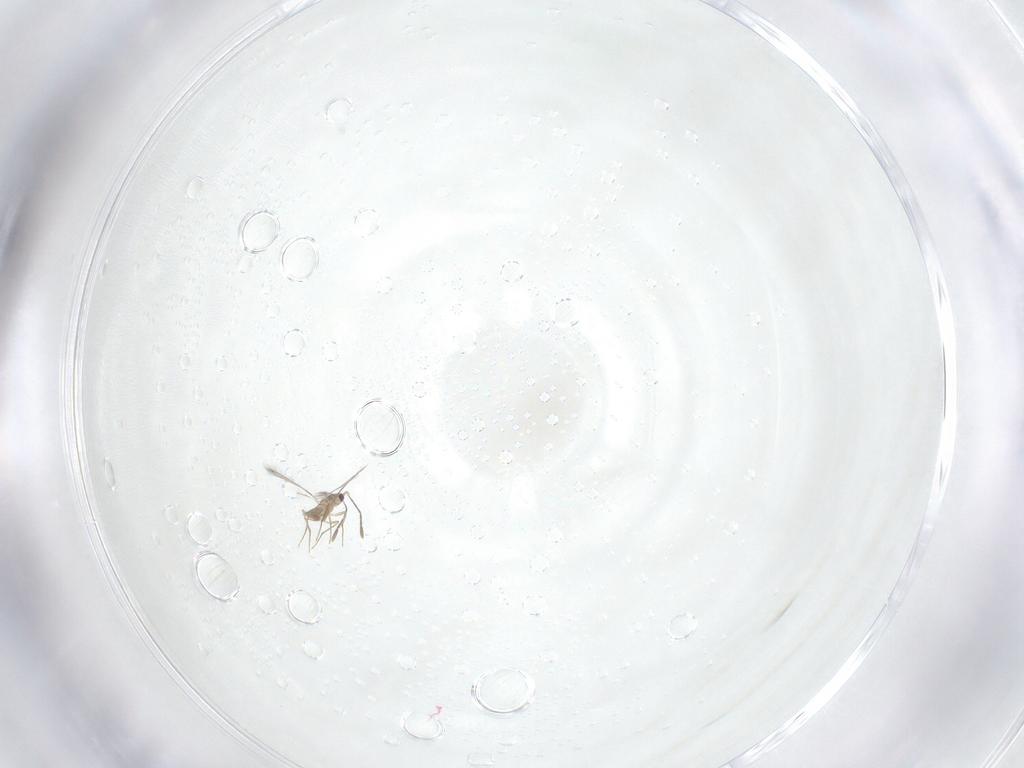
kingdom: Animalia
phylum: Arthropoda
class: Insecta
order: Hymenoptera
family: Mymaridae
